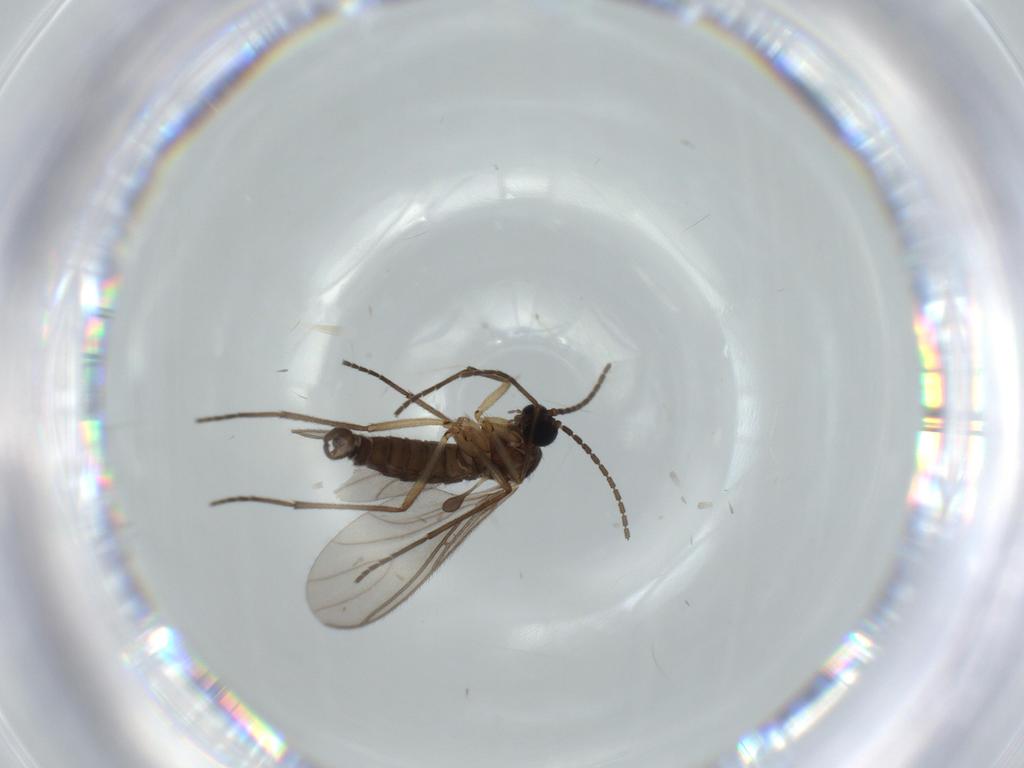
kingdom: Animalia
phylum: Arthropoda
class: Insecta
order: Diptera
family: Sciaridae
